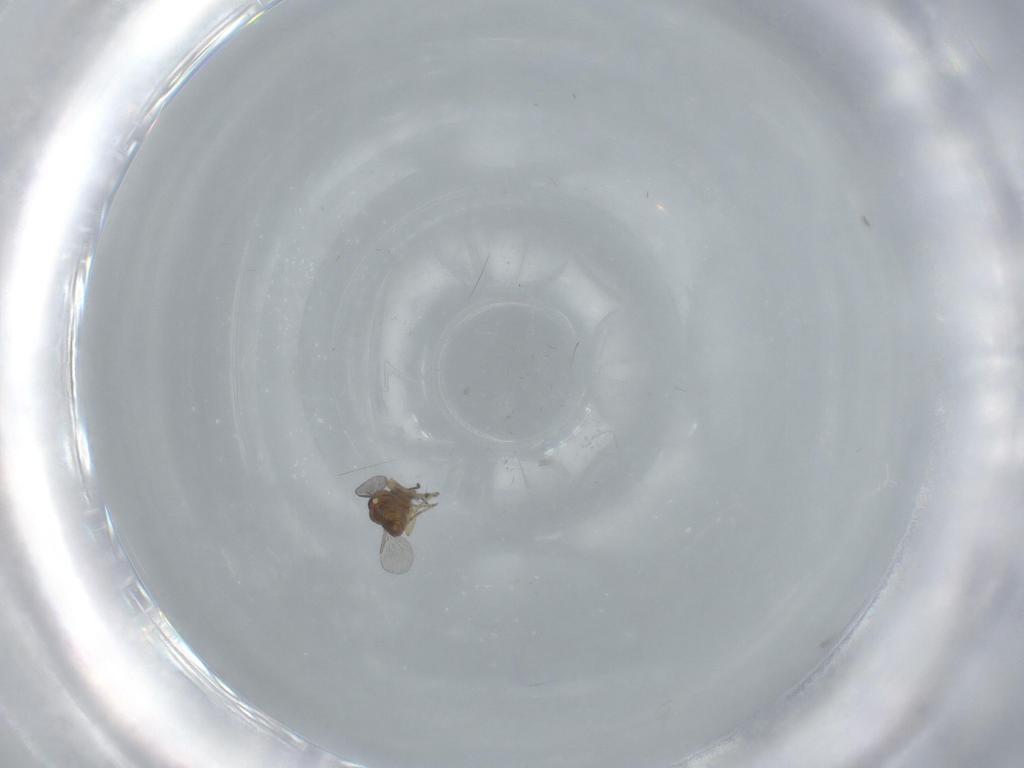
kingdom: Animalia
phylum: Arthropoda
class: Insecta
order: Diptera
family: Ceratopogonidae
